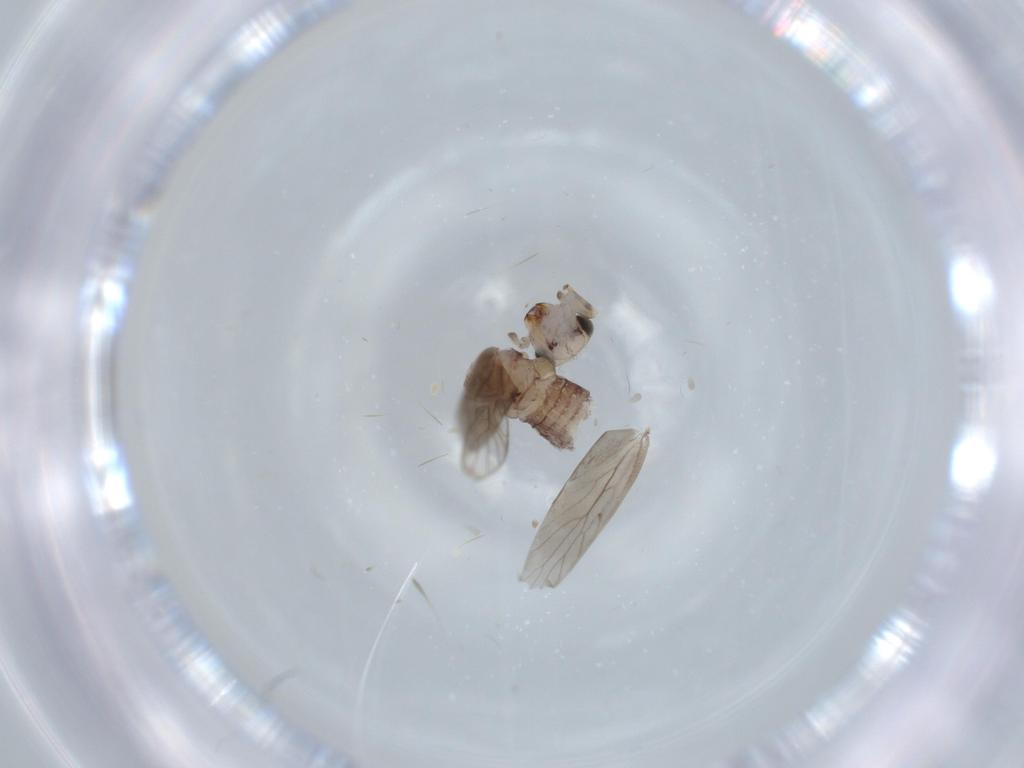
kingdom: Animalia
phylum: Arthropoda
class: Insecta
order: Psocodea
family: Lepidopsocidae
